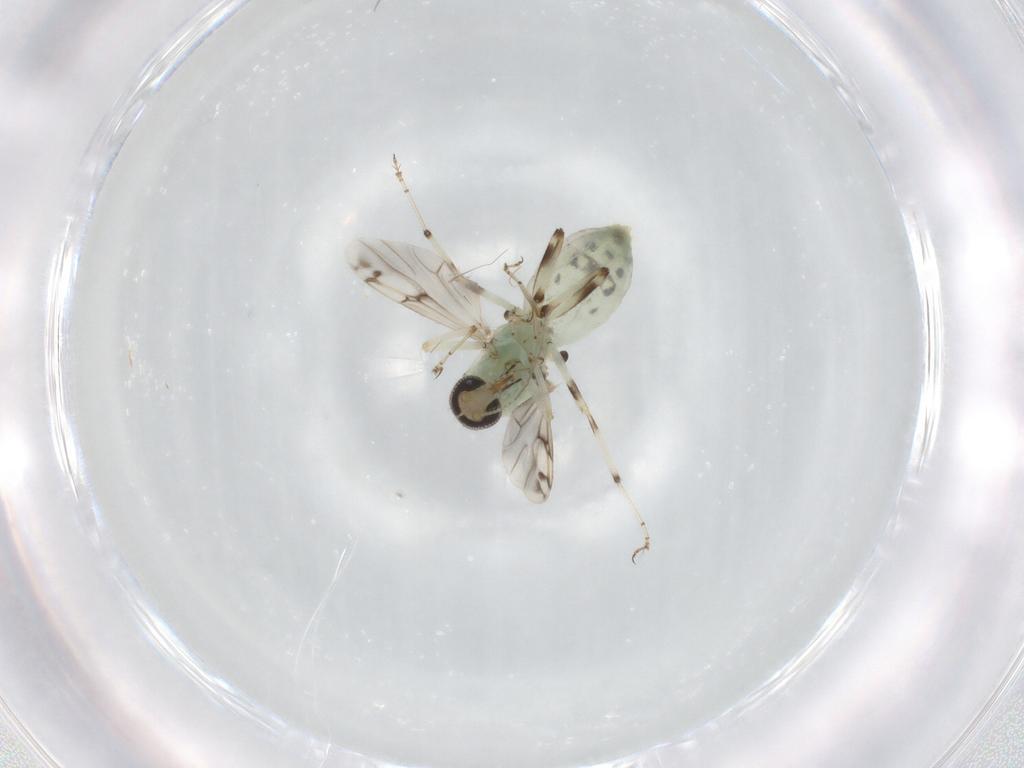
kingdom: Animalia
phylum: Arthropoda
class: Insecta
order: Diptera
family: Ceratopogonidae
